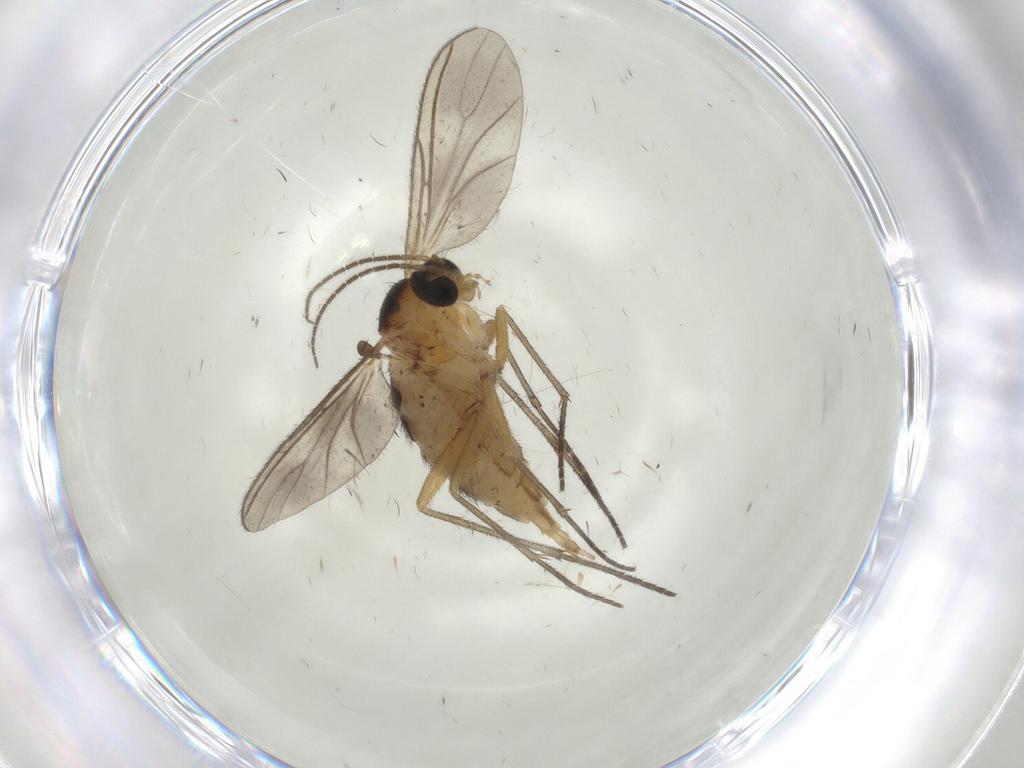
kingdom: Animalia
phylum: Arthropoda
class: Insecta
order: Diptera
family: Sciaridae
